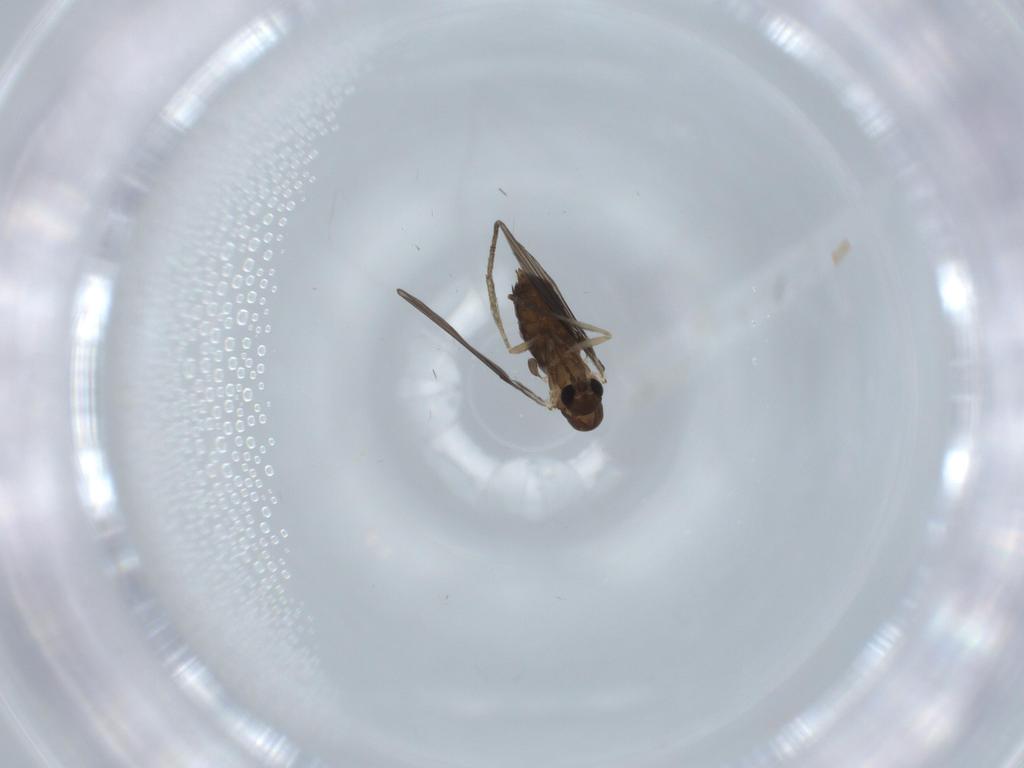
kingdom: Animalia
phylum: Arthropoda
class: Insecta
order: Diptera
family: Psychodidae
